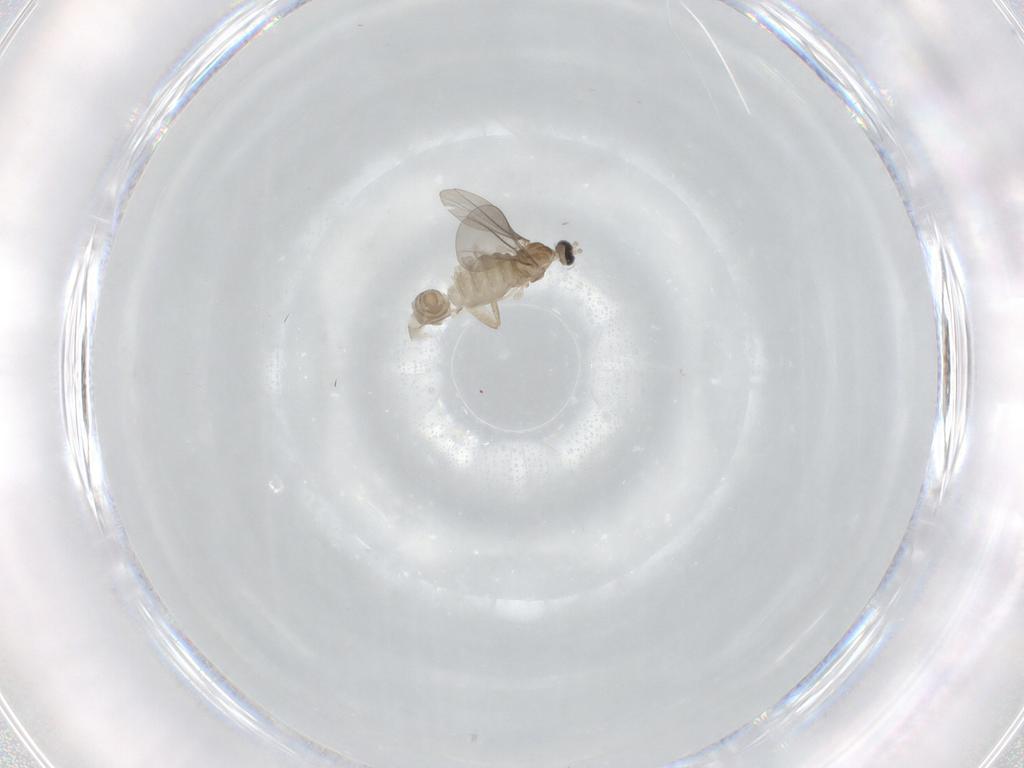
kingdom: Animalia
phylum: Arthropoda
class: Insecta
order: Diptera
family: Phoridae
